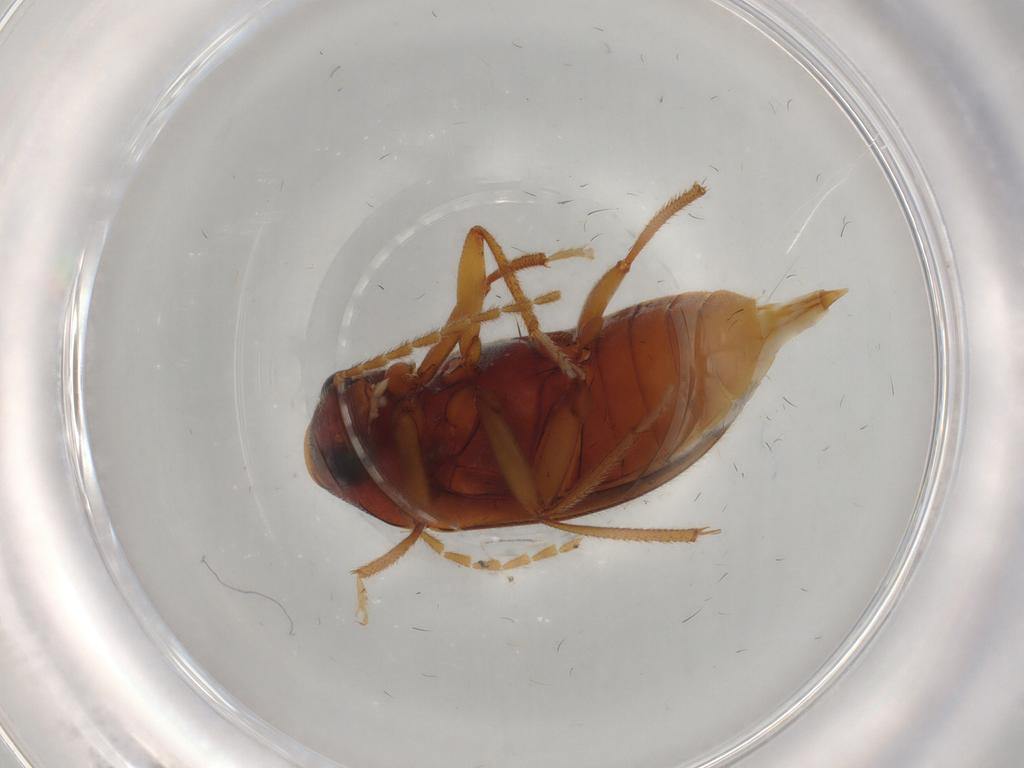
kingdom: Animalia
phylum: Arthropoda
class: Insecta
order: Coleoptera
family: Chrysomelidae
